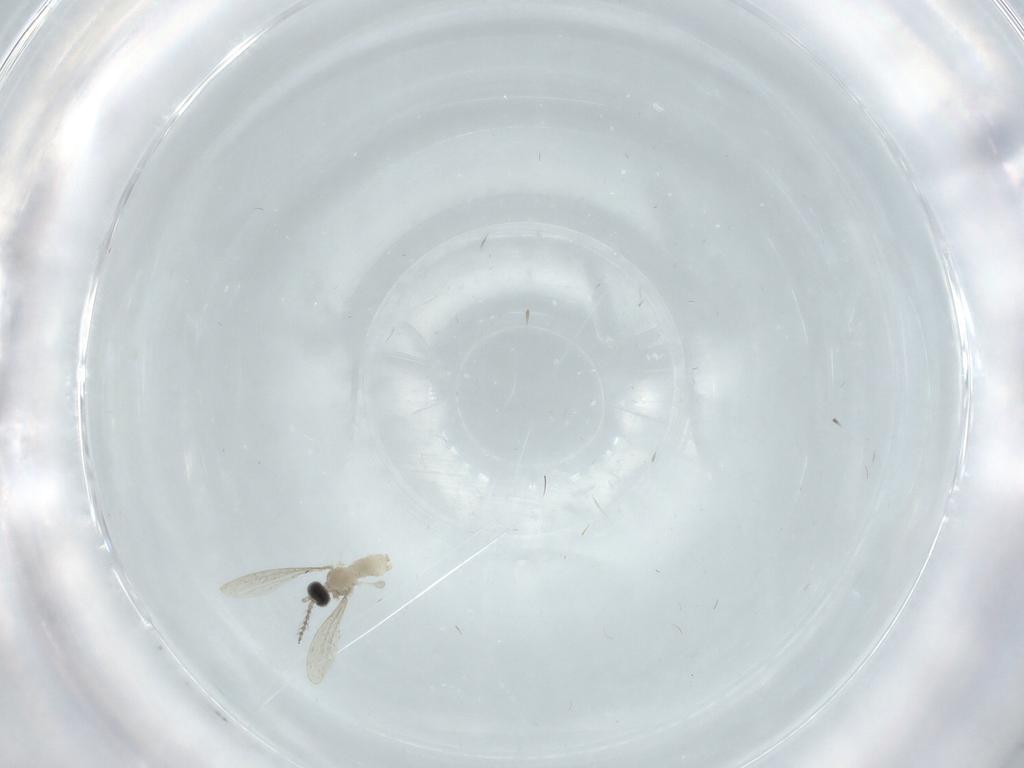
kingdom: Animalia
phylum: Arthropoda
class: Insecta
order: Diptera
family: Cecidomyiidae
